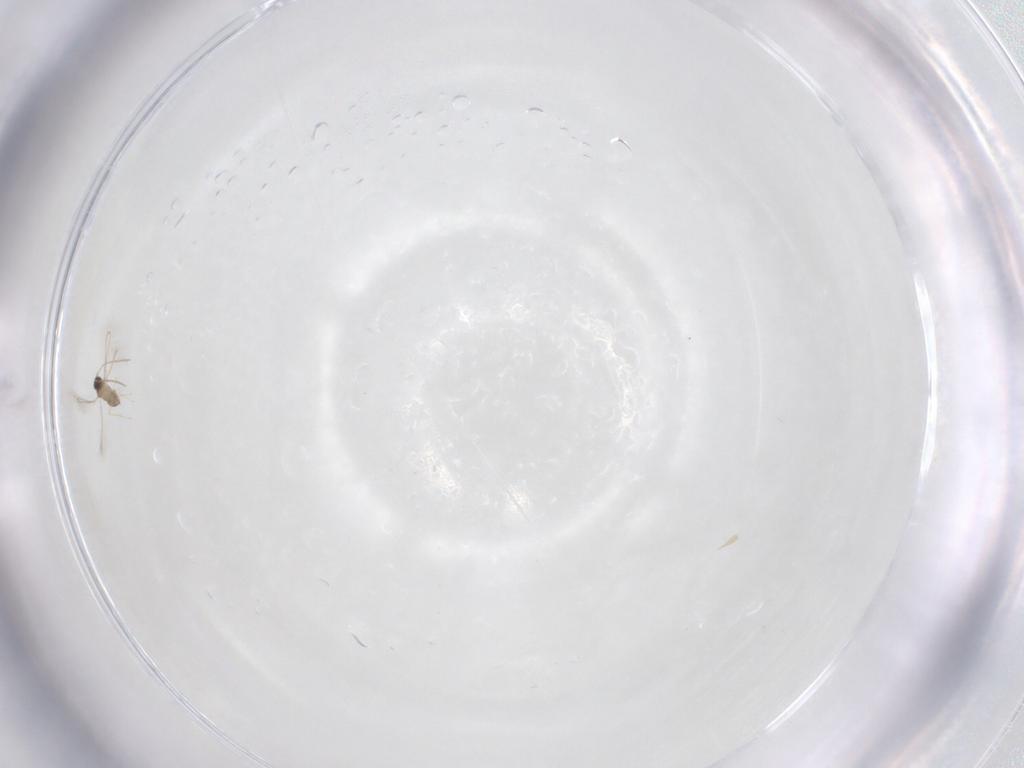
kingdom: Animalia
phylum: Arthropoda
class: Insecta
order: Hymenoptera
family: Mymaridae
